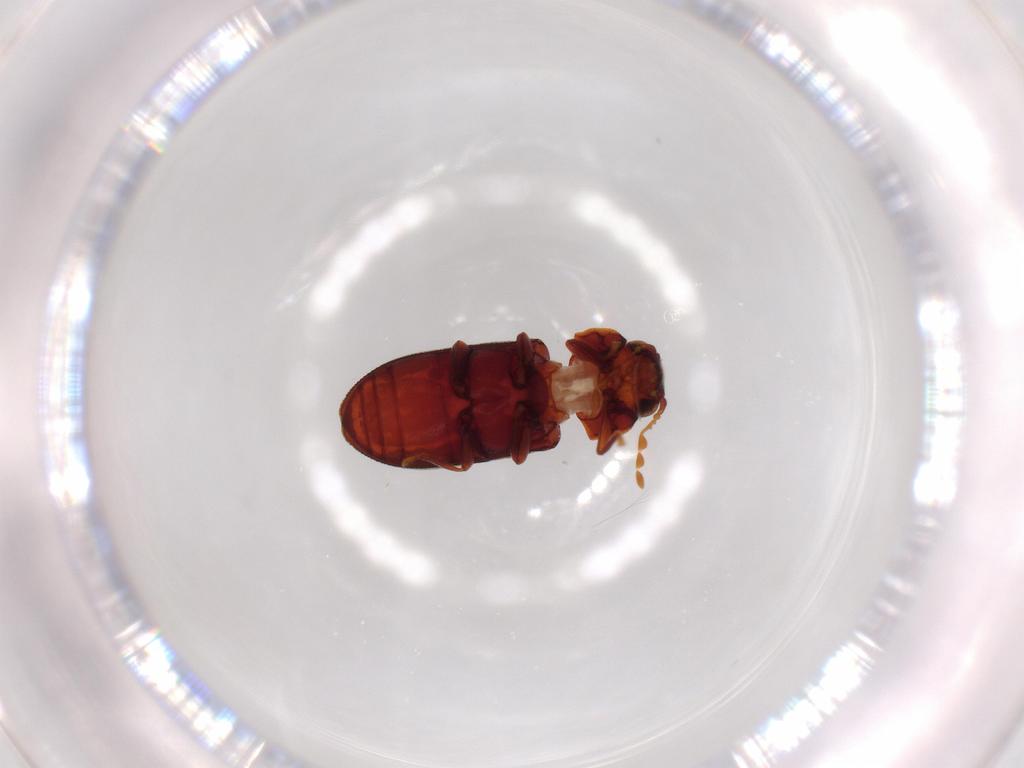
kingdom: Animalia
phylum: Arthropoda
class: Insecta
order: Coleoptera
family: Ptinidae
